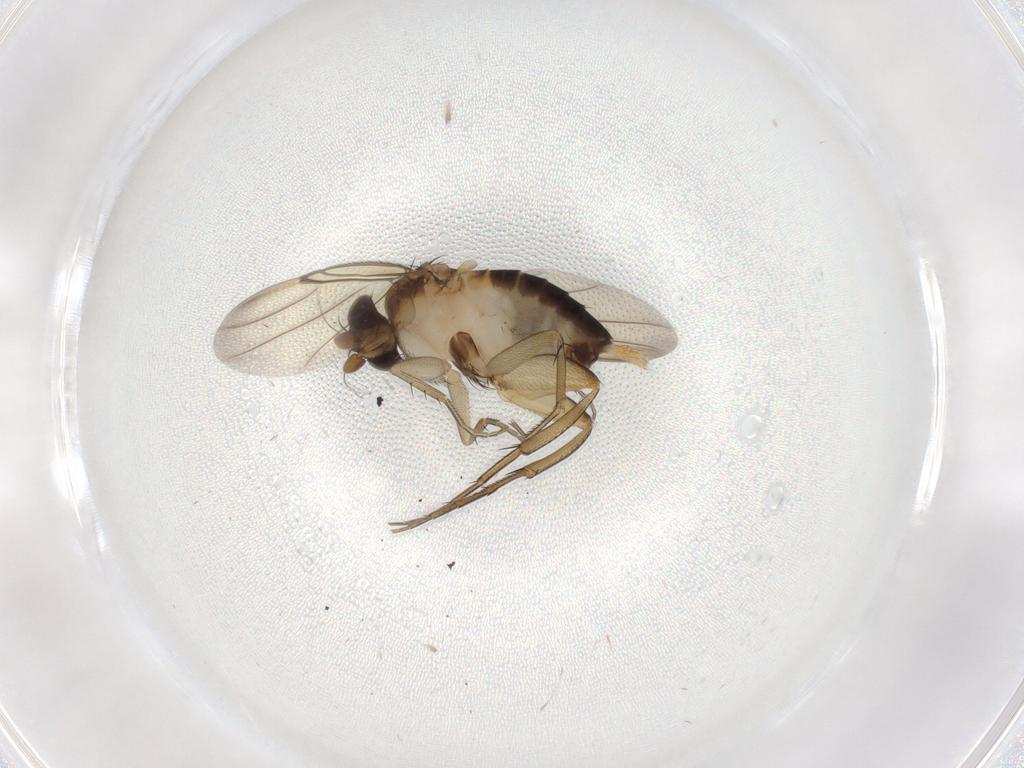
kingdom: Animalia
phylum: Arthropoda
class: Insecta
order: Diptera
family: Phoridae
